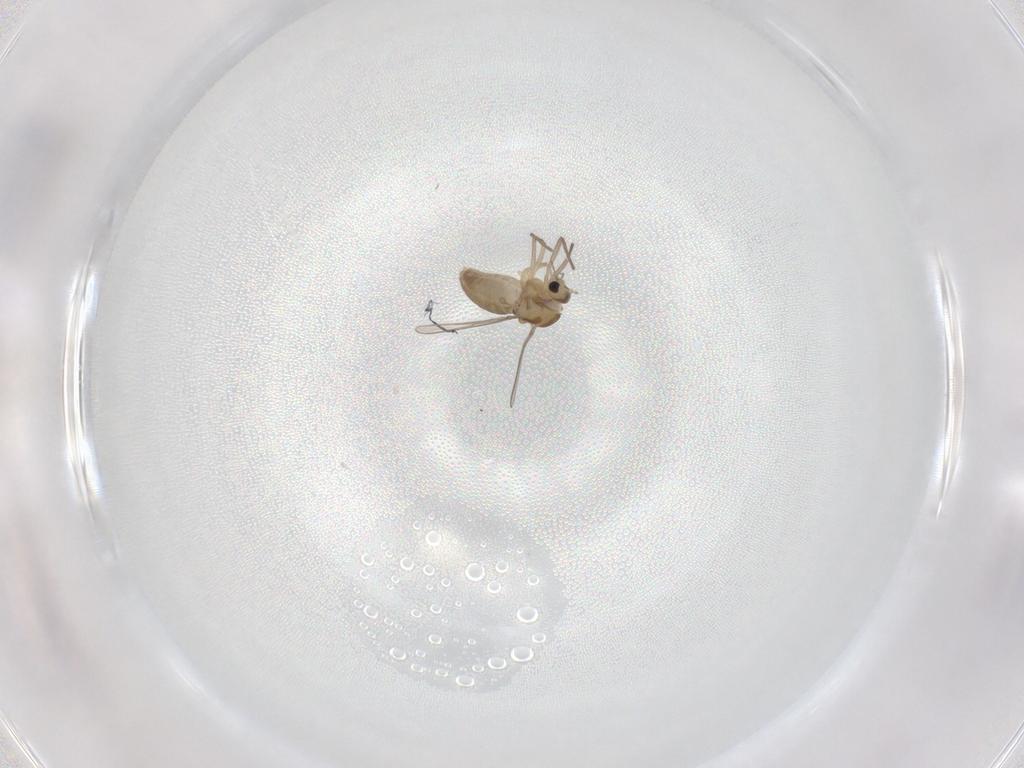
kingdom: Animalia
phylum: Arthropoda
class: Insecta
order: Diptera
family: Chironomidae
